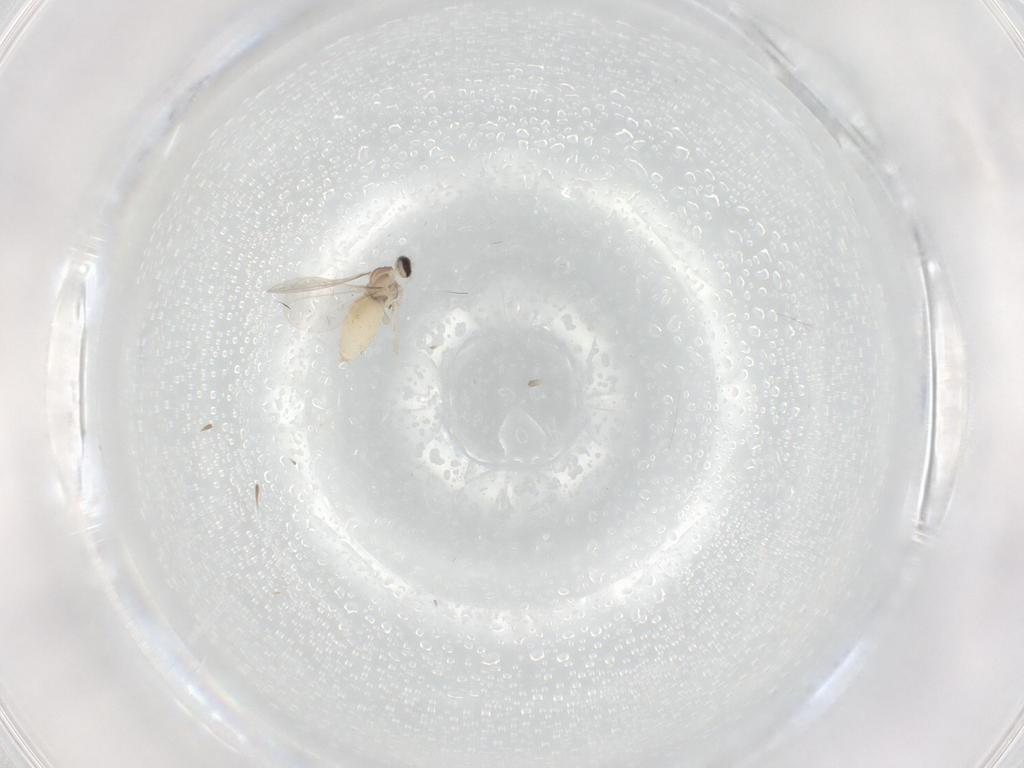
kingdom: Animalia
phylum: Arthropoda
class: Insecta
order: Diptera
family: Cecidomyiidae
